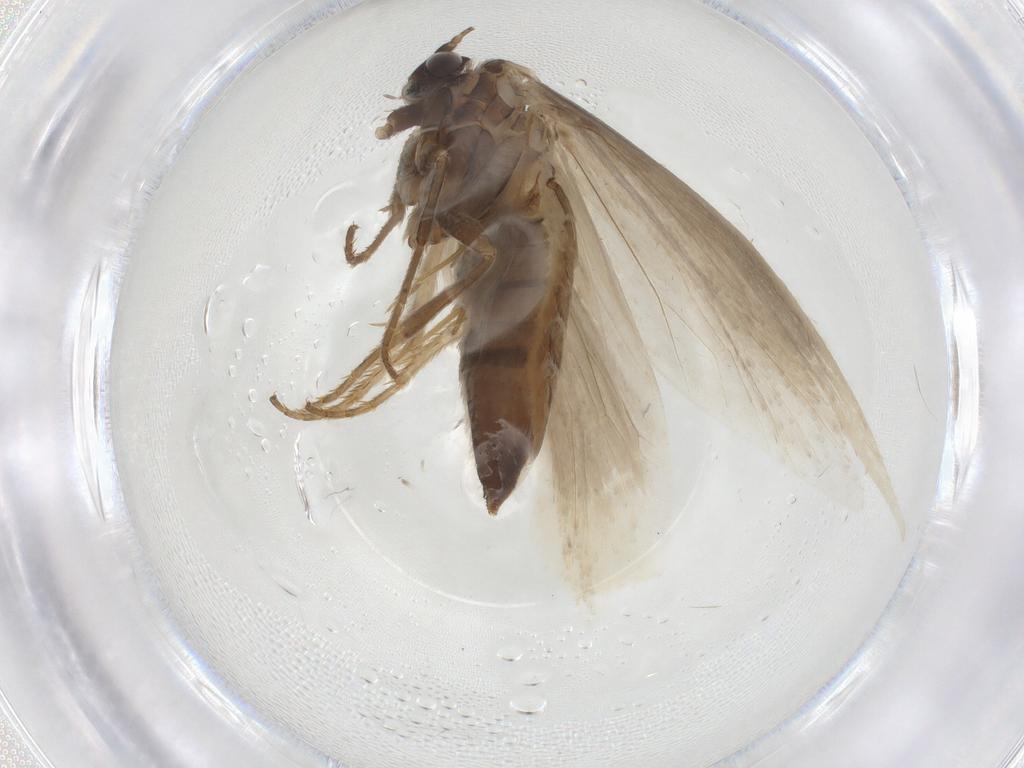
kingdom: Animalia
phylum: Arthropoda
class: Insecta
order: Lepidoptera
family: Tridentaformidae
